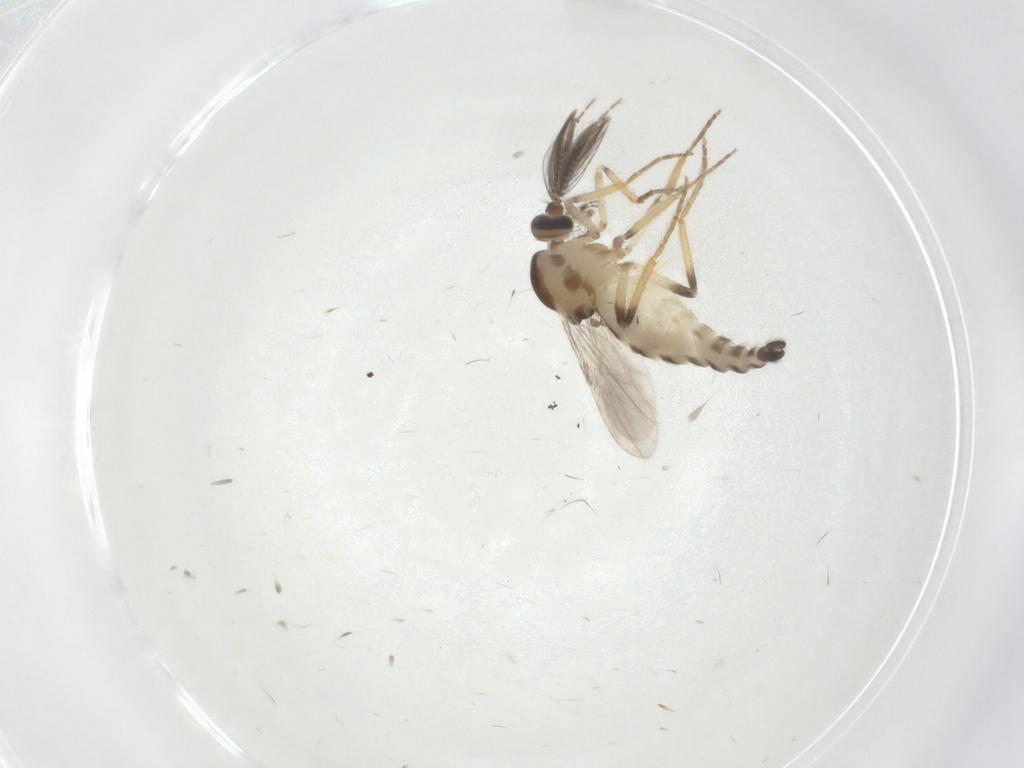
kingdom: Animalia
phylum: Arthropoda
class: Insecta
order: Diptera
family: Ceratopogonidae
